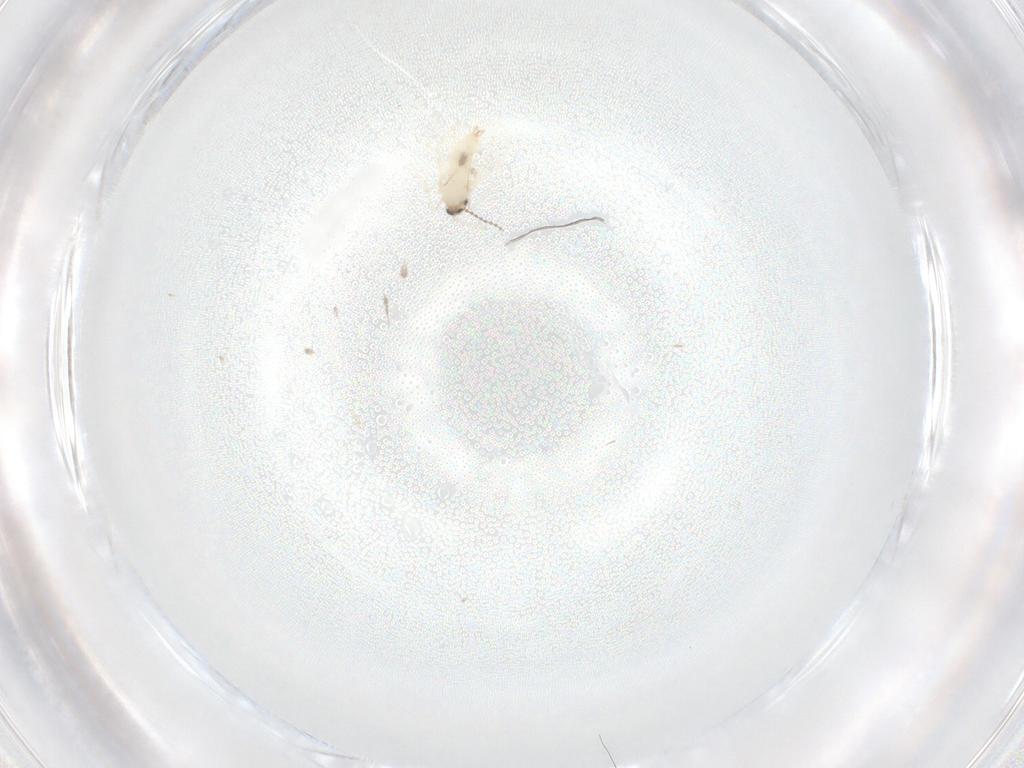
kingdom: Animalia
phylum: Arthropoda
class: Insecta
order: Diptera
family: Cecidomyiidae
